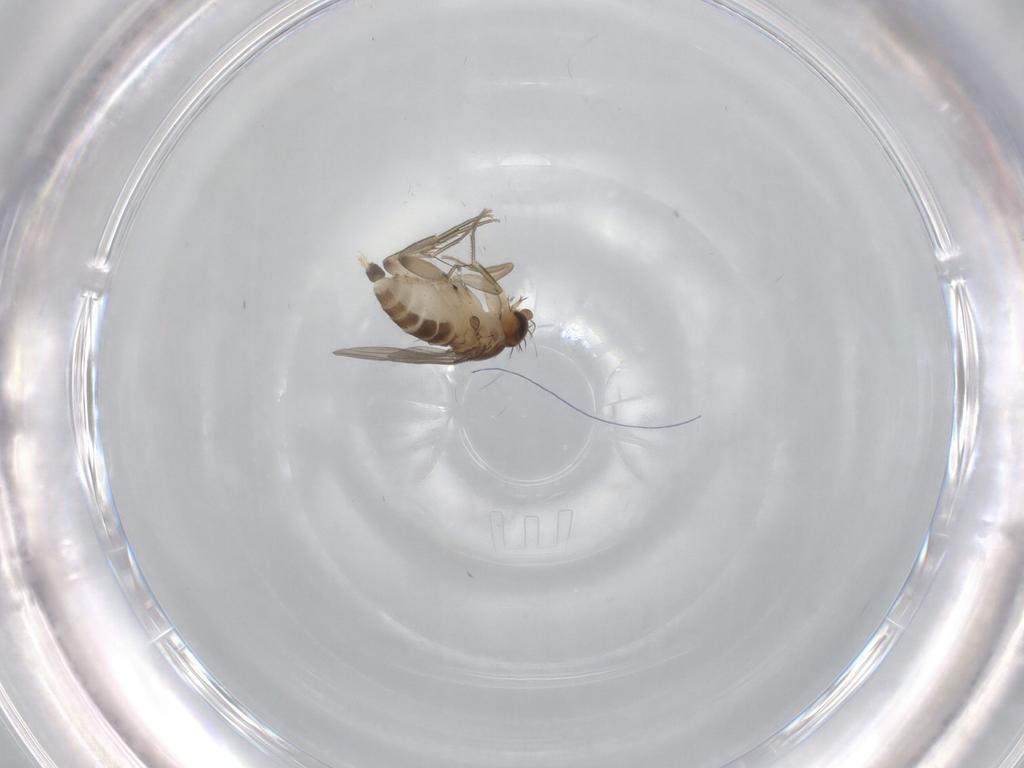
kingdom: Animalia
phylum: Arthropoda
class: Insecta
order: Diptera
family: Chironomidae
